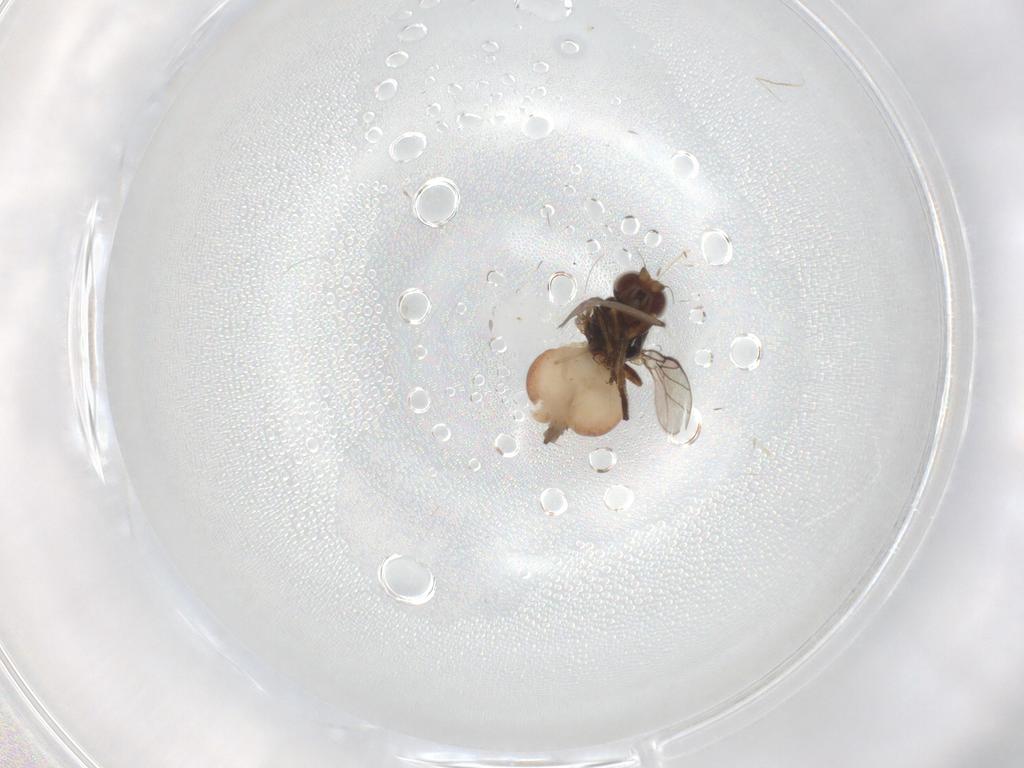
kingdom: Animalia
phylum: Arthropoda
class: Insecta
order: Diptera
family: Chloropidae
